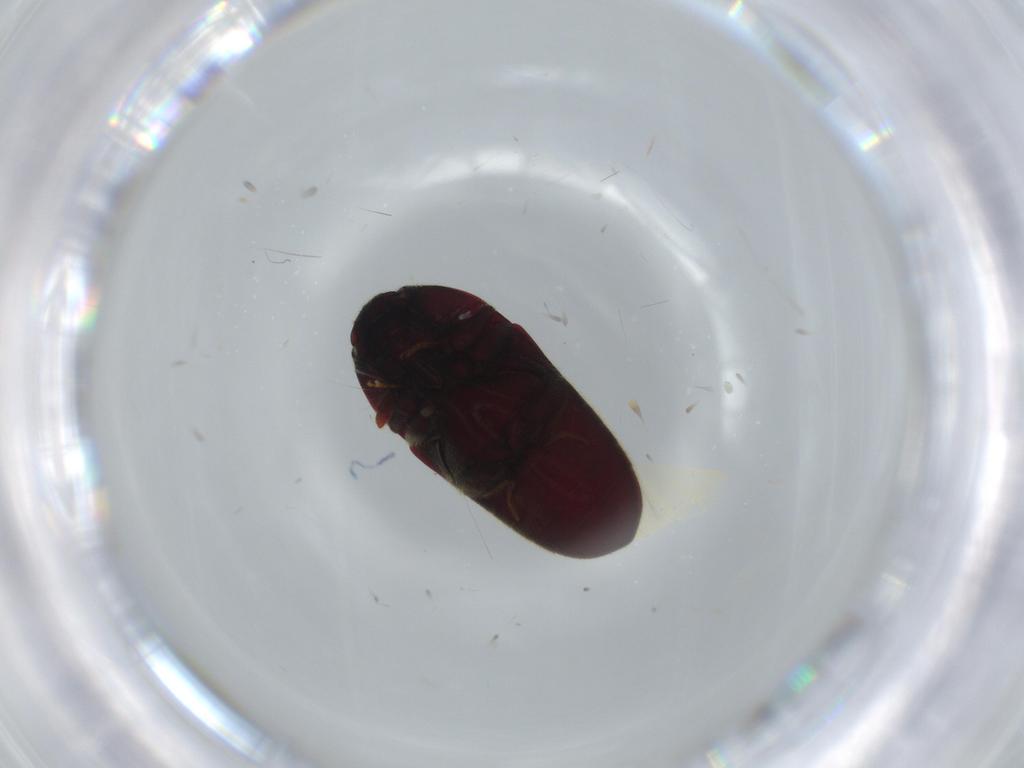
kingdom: Animalia
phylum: Arthropoda
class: Insecta
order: Coleoptera
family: Throscidae
